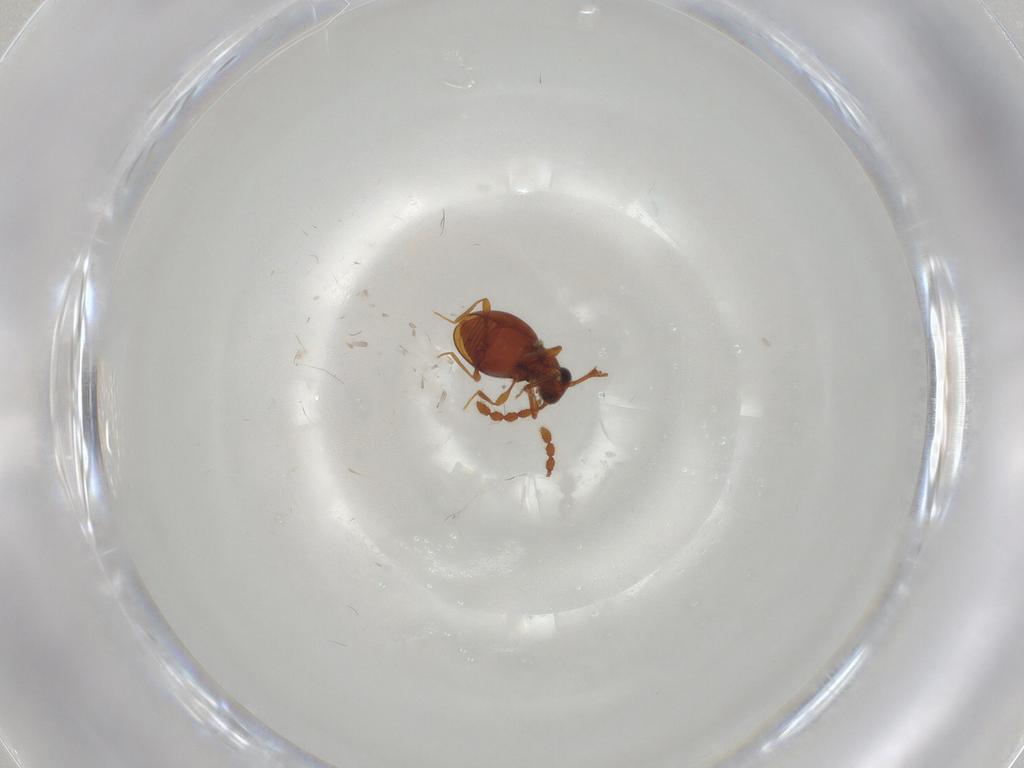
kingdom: Animalia
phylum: Arthropoda
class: Insecta
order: Coleoptera
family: Staphylinidae
